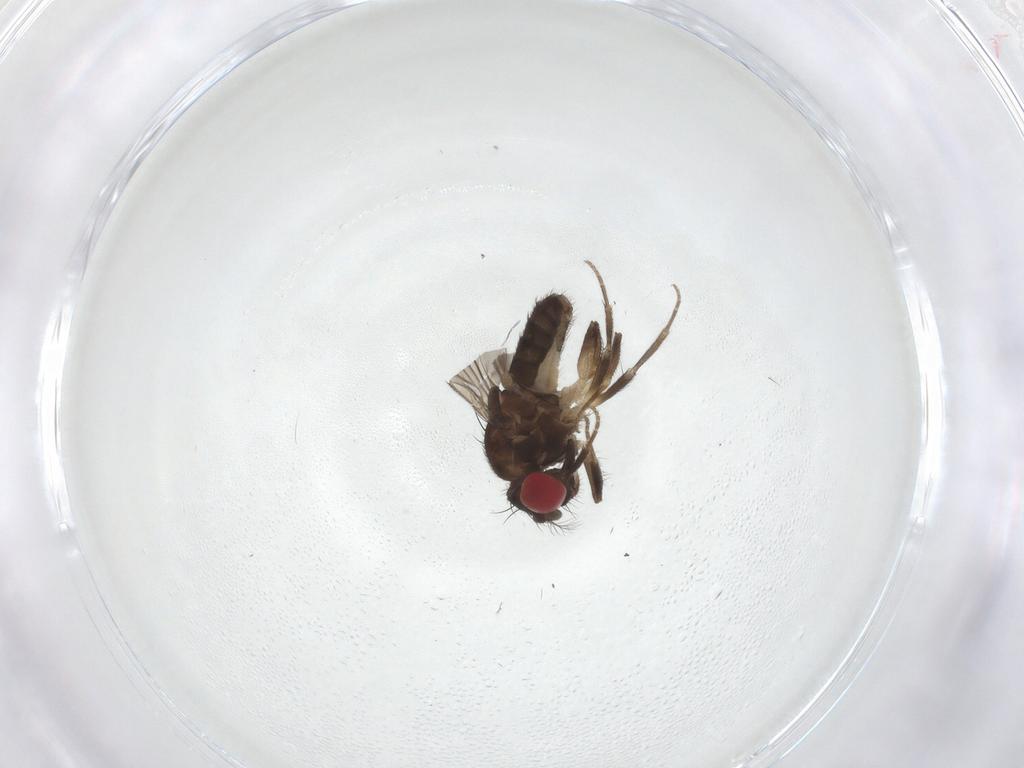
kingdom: Animalia
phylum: Arthropoda
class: Insecta
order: Diptera
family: Drosophilidae
